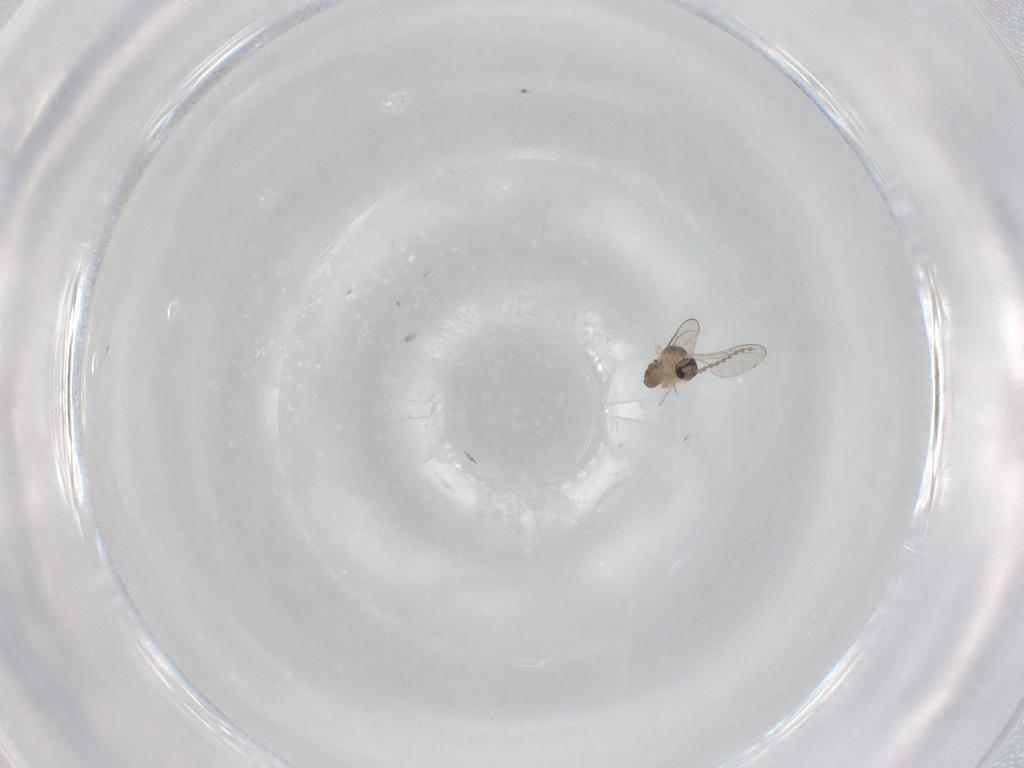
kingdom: Animalia
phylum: Arthropoda
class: Insecta
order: Diptera
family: Cecidomyiidae
